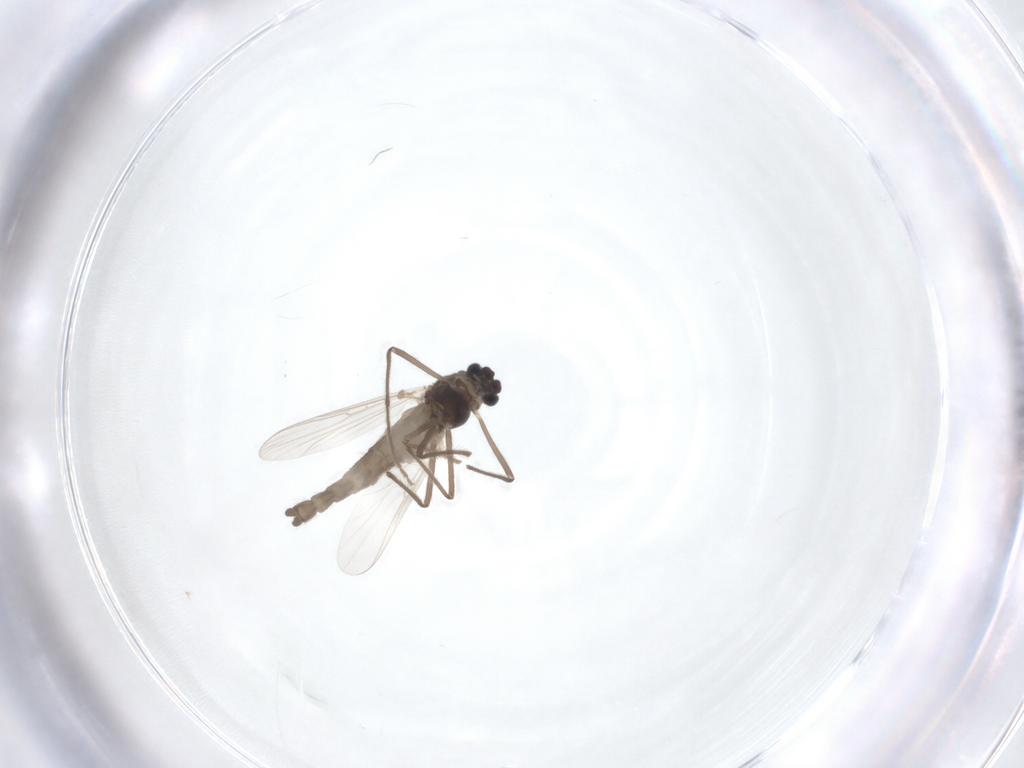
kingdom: Animalia
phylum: Arthropoda
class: Insecta
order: Diptera
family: Chironomidae
